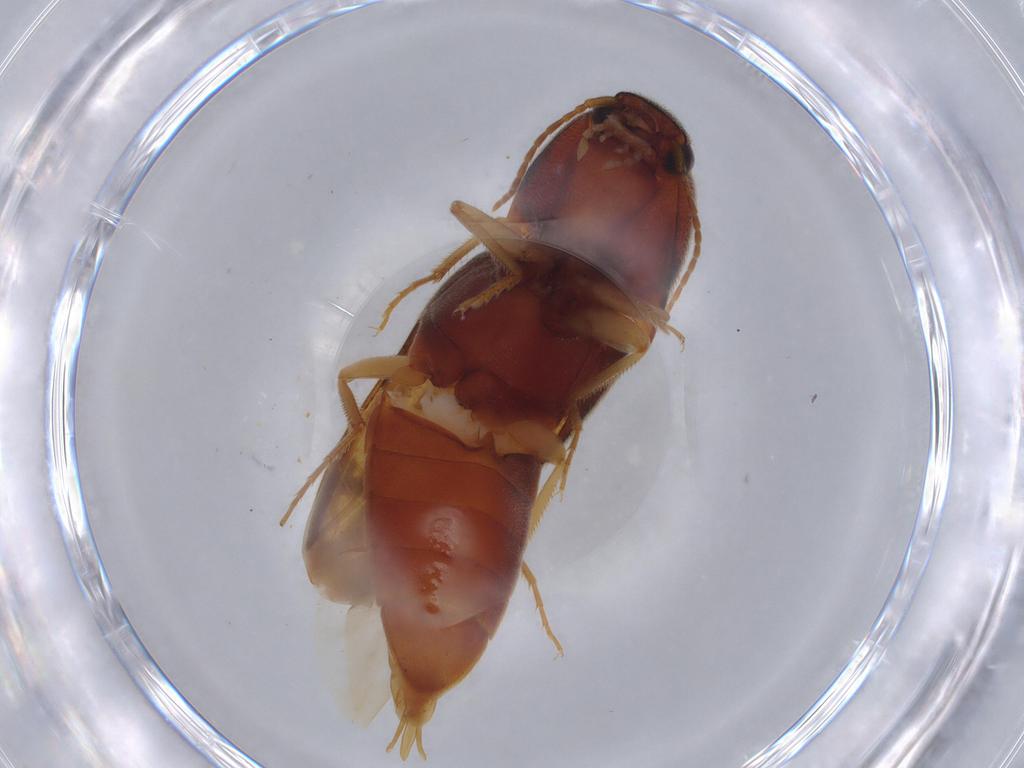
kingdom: Animalia
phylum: Arthropoda
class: Insecta
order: Coleoptera
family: Elateridae
